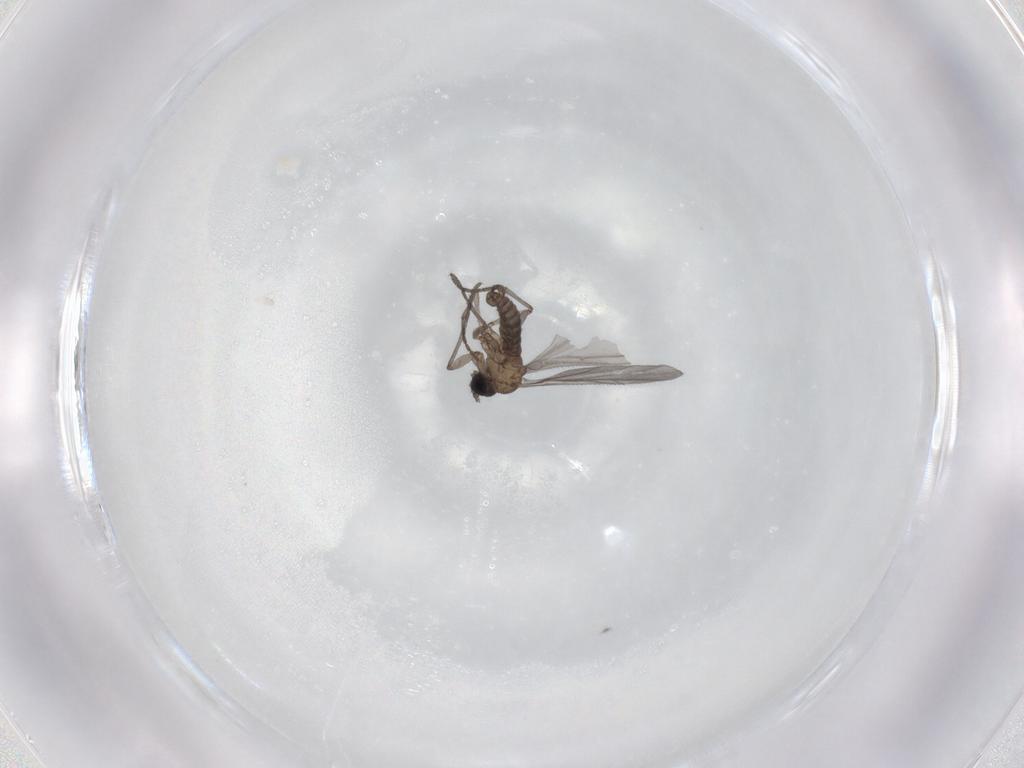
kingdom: Animalia
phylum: Arthropoda
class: Insecta
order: Diptera
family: Sciaridae
